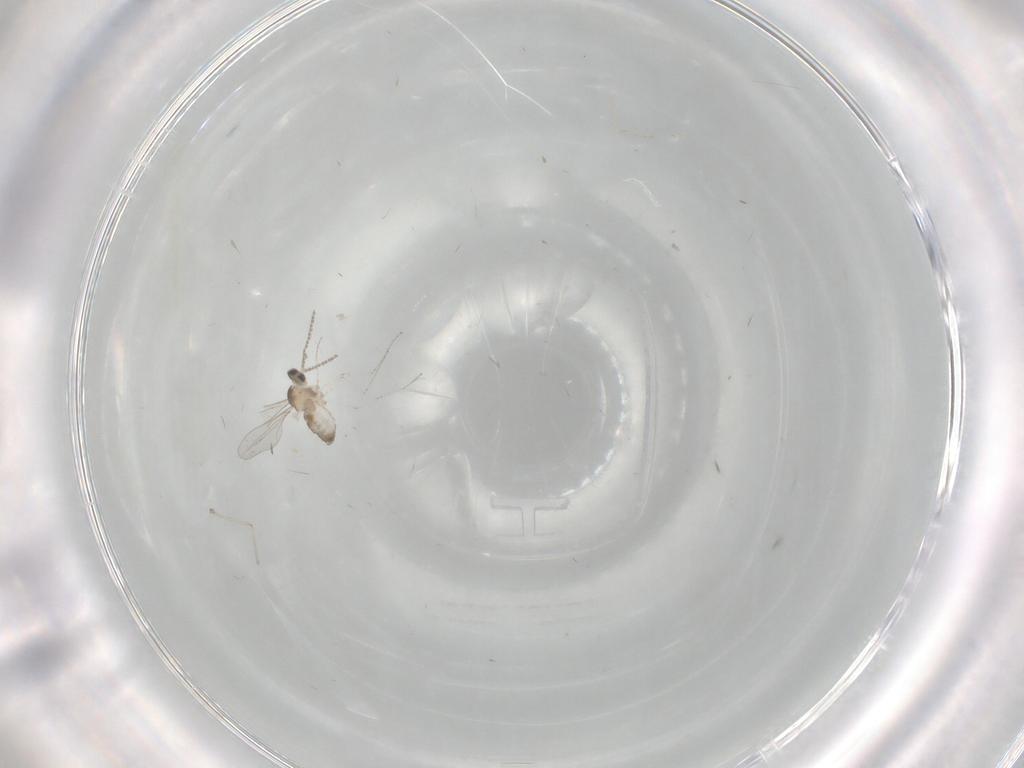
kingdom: Animalia
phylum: Arthropoda
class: Insecta
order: Diptera
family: Cecidomyiidae
